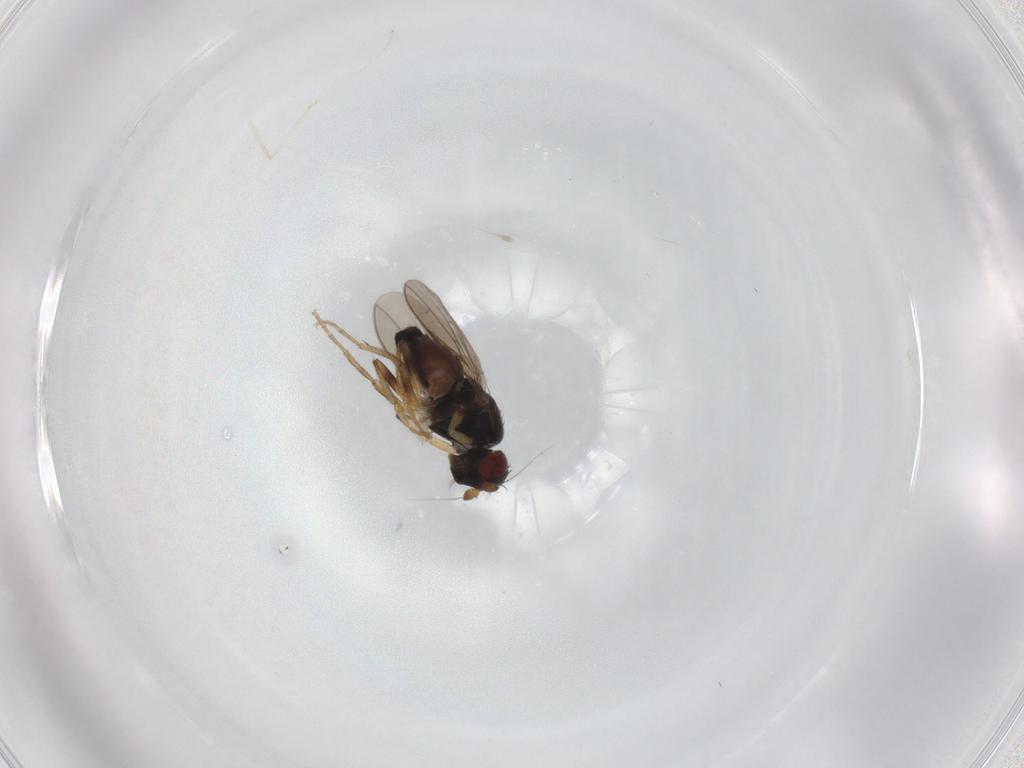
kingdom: Animalia
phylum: Arthropoda
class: Insecta
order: Diptera
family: Sphaeroceridae
